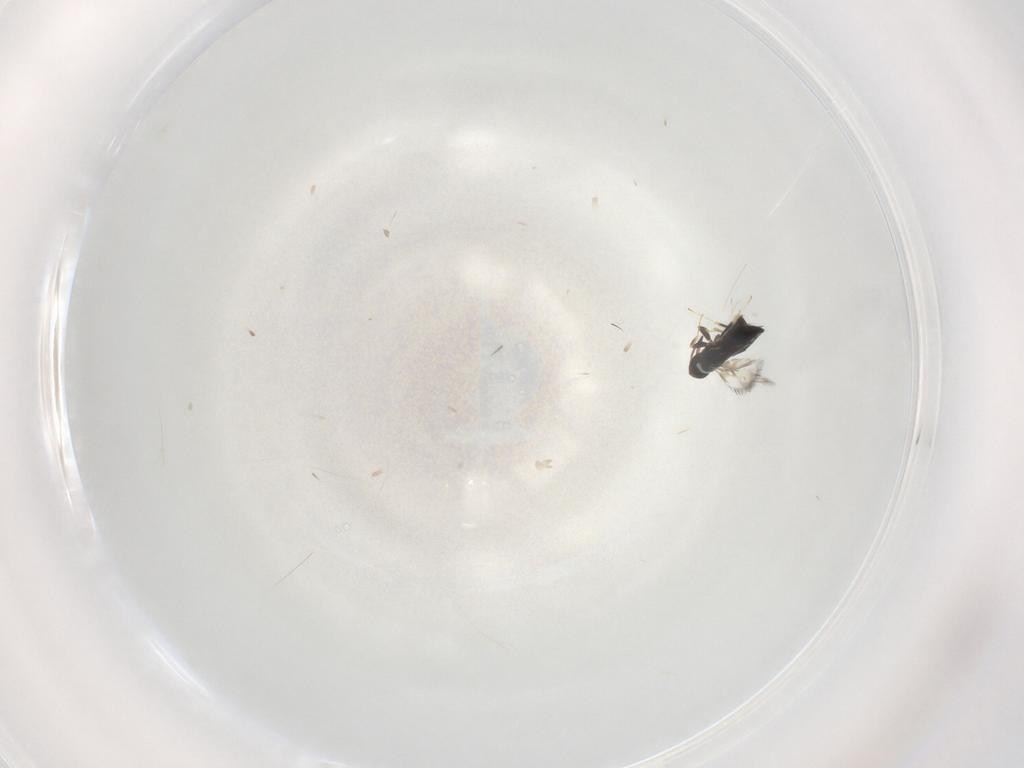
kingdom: Animalia
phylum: Arthropoda
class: Insecta
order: Hymenoptera
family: Signiphoridae
